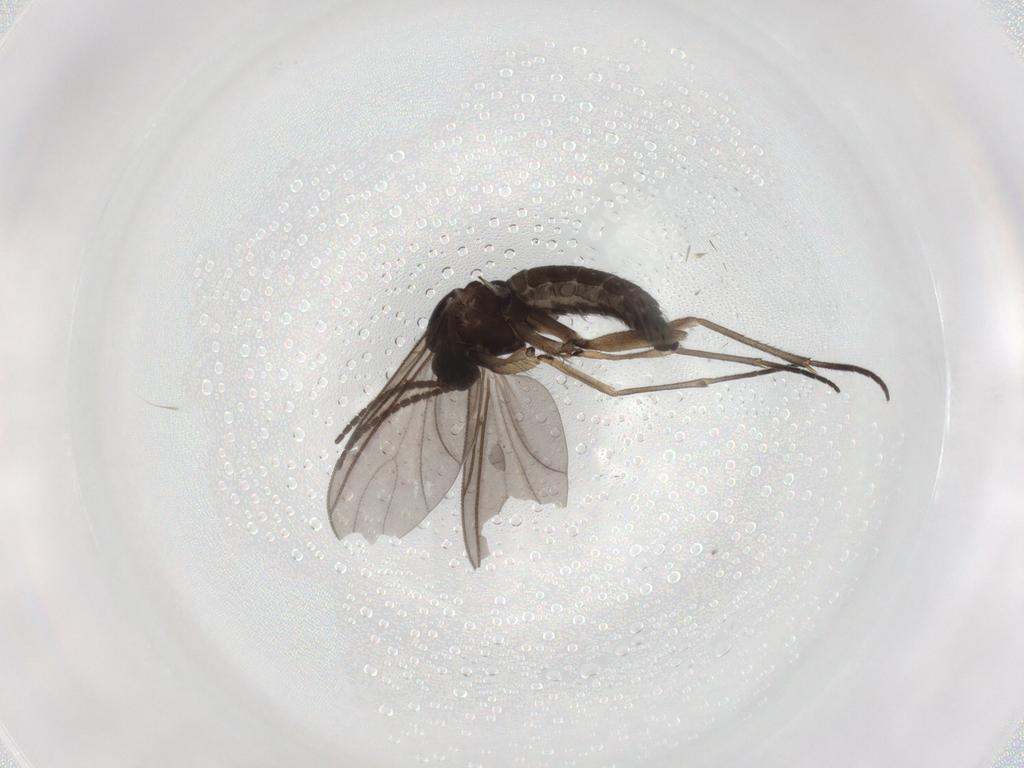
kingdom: Animalia
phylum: Arthropoda
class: Insecta
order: Diptera
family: Sciaridae
